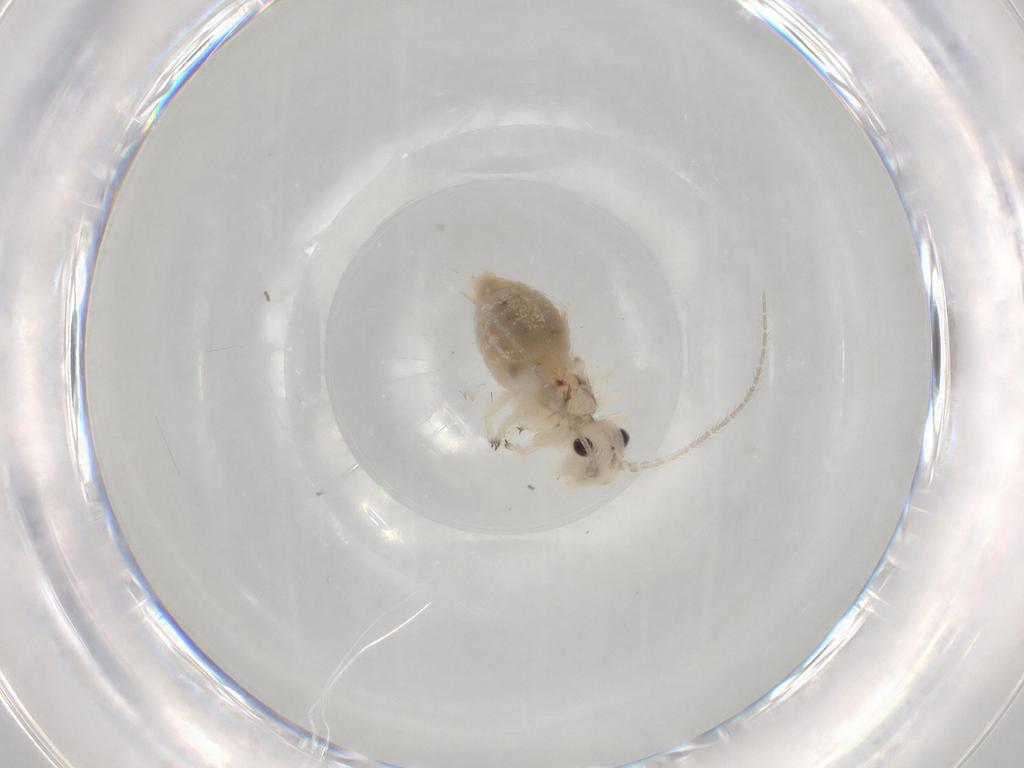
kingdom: Animalia
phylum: Arthropoda
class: Insecta
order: Psocodea
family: Amphipsocidae
